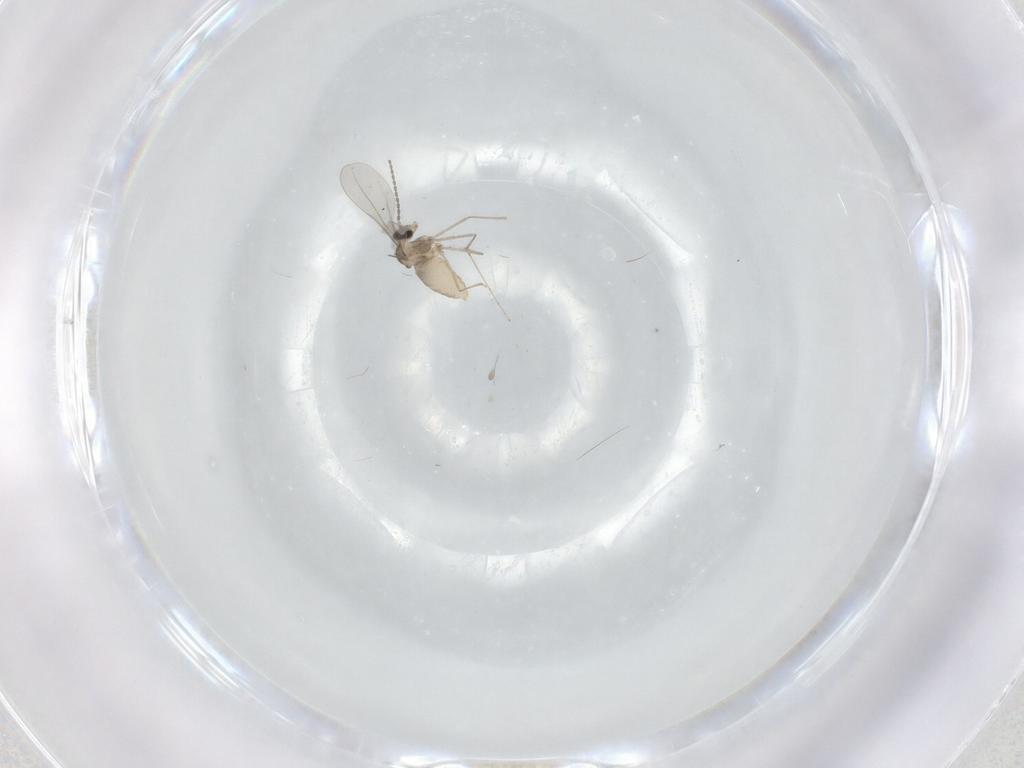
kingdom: Animalia
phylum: Arthropoda
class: Insecta
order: Diptera
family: Cecidomyiidae
